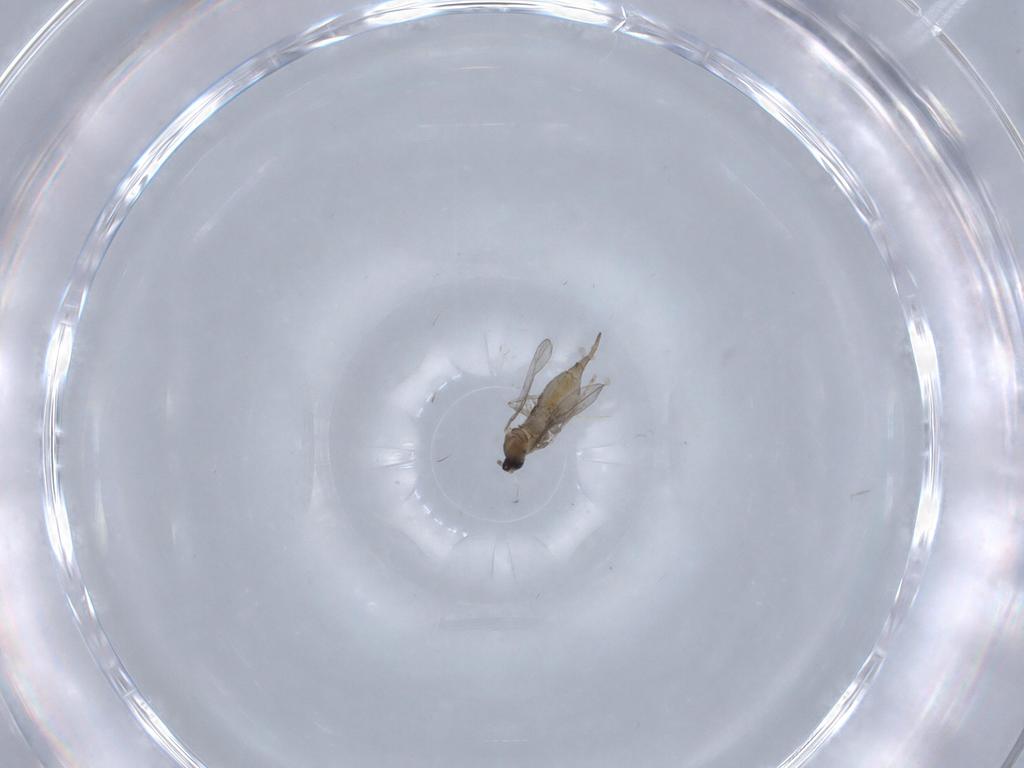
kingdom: Animalia
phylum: Arthropoda
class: Insecta
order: Diptera
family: Cecidomyiidae
